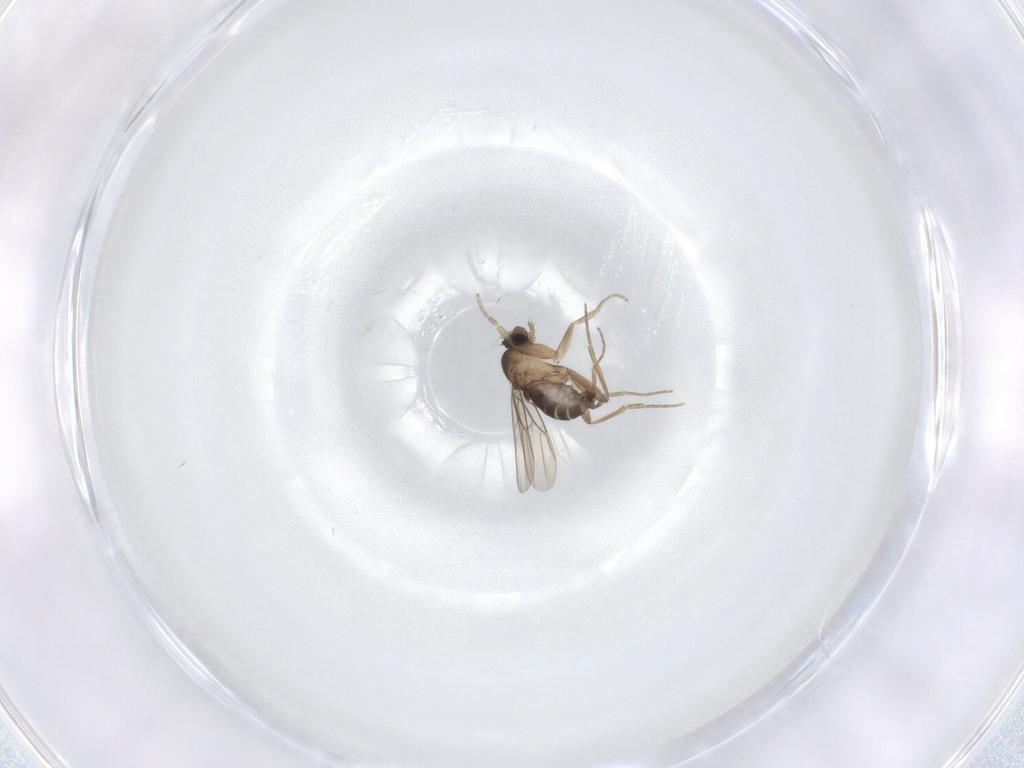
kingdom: Animalia
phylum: Arthropoda
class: Insecta
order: Diptera
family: Phoridae
